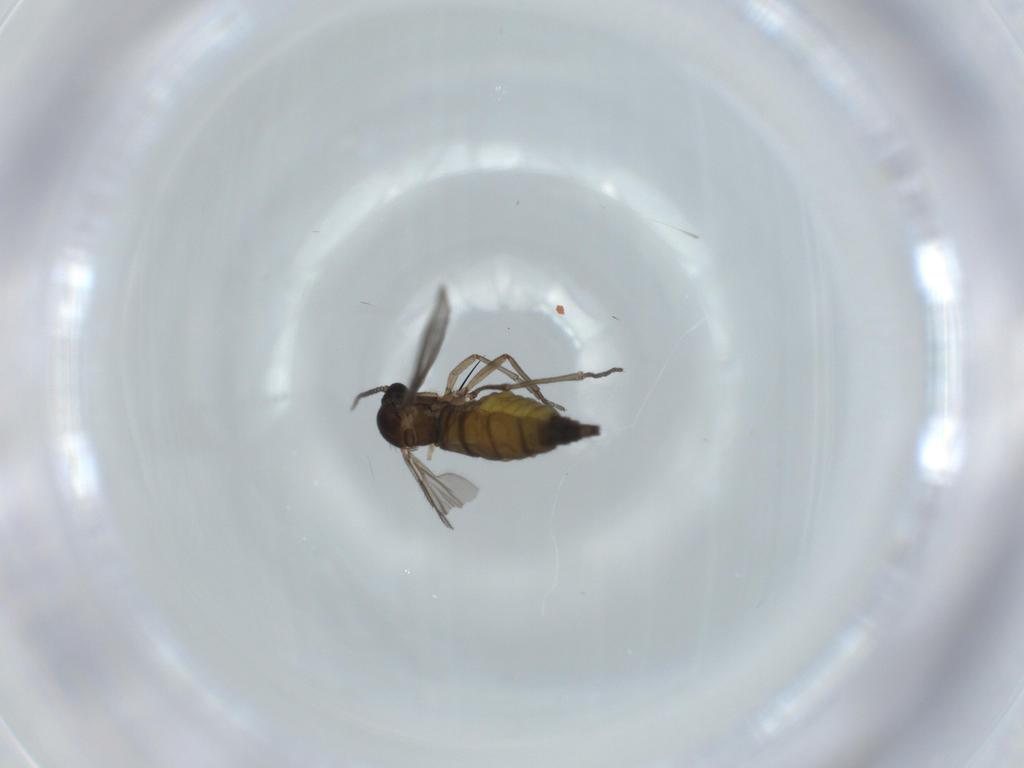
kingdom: Animalia
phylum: Arthropoda
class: Insecta
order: Diptera
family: Sciaridae
